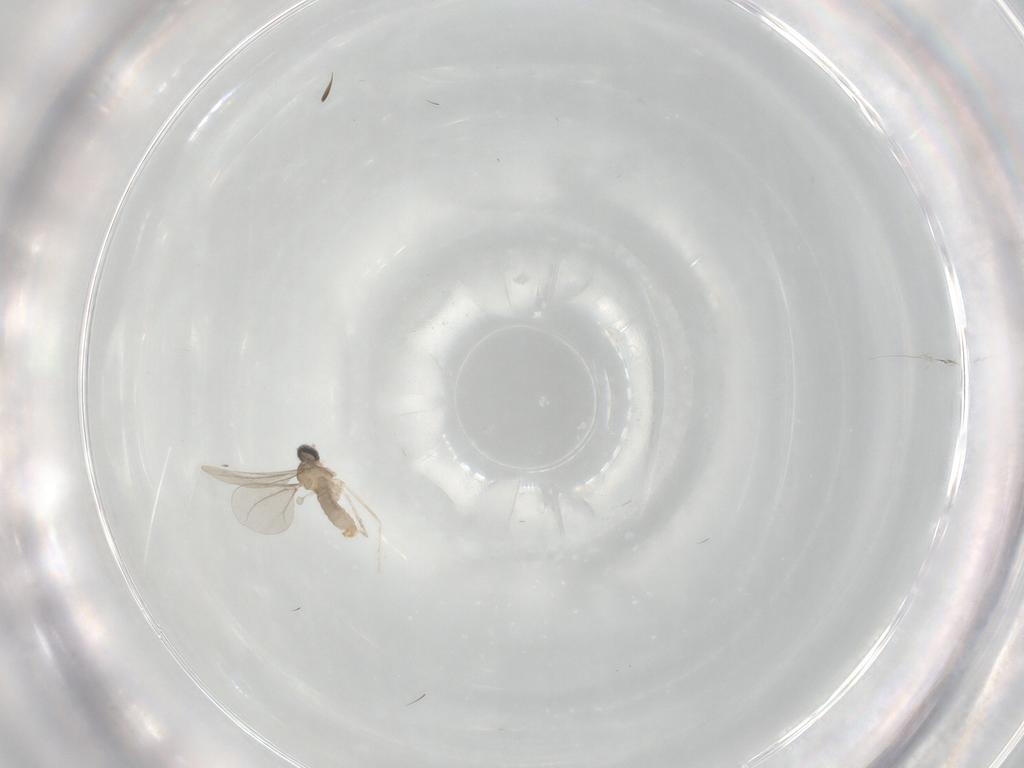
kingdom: Animalia
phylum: Arthropoda
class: Insecta
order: Diptera
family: Cecidomyiidae
